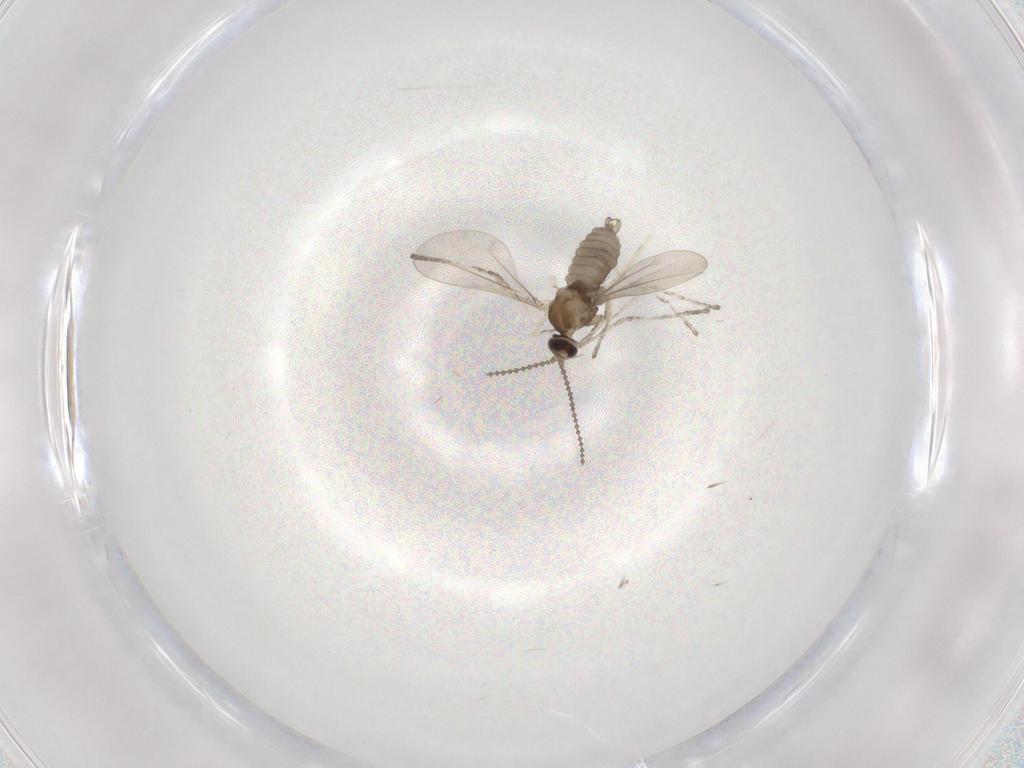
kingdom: Animalia
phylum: Arthropoda
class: Insecta
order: Diptera
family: Cecidomyiidae
